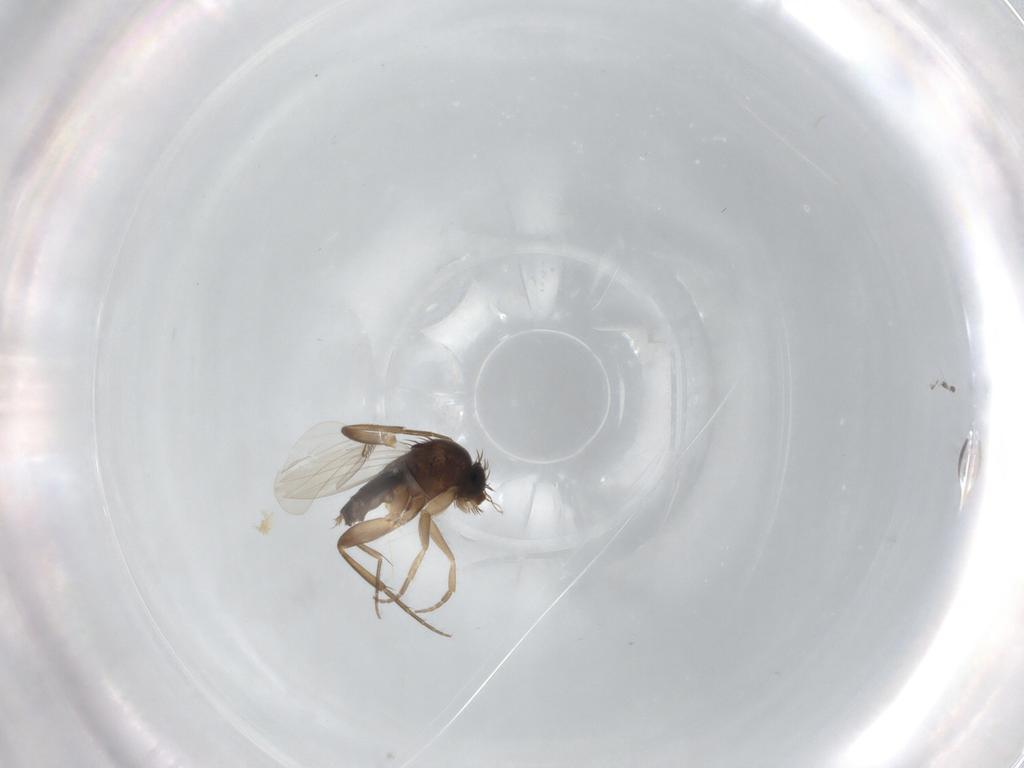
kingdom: Animalia
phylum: Arthropoda
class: Insecta
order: Diptera
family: Phoridae
